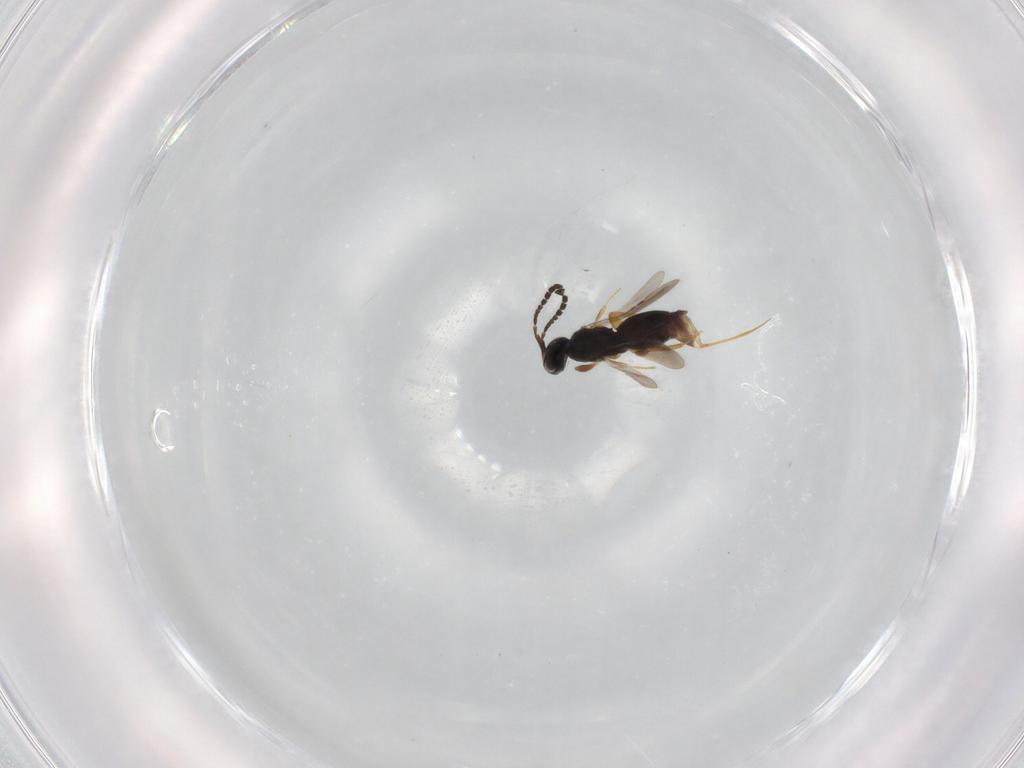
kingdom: Animalia
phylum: Arthropoda
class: Insecta
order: Hymenoptera
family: Ceraphronidae
